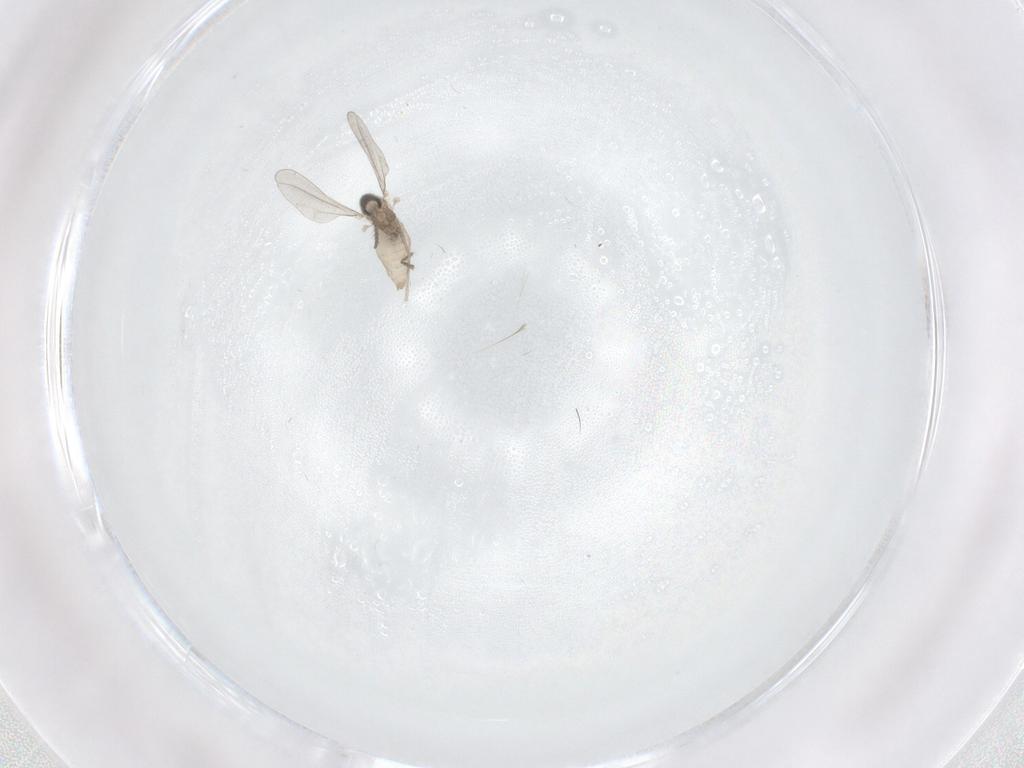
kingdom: Animalia
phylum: Arthropoda
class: Insecta
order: Diptera
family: Cecidomyiidae
